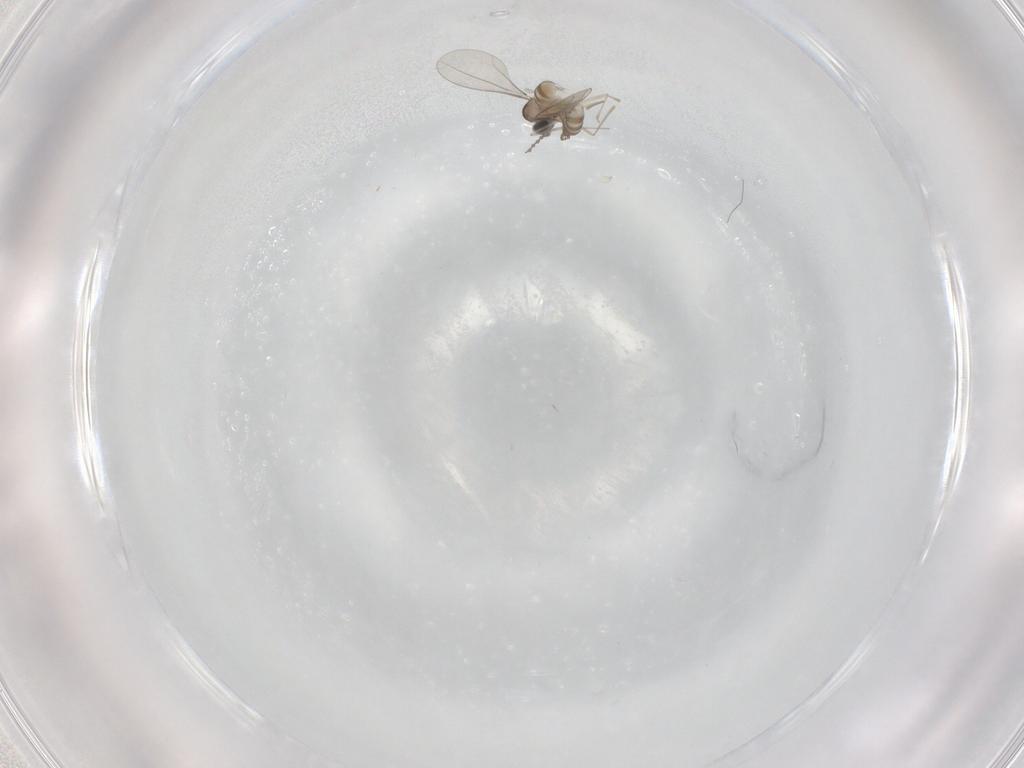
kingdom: Animalia
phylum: Arthropoda
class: Insecta
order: Diptera
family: Cecidomyiidae
